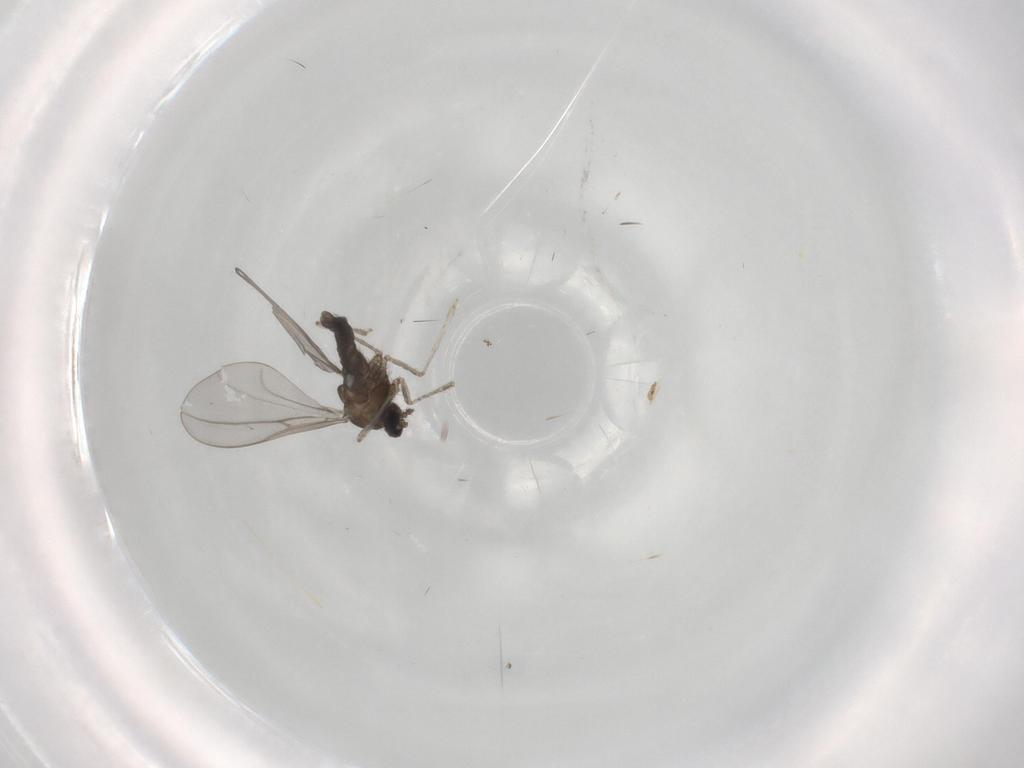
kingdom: Animalia
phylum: Arthropoda
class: Insecta
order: Diptera
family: Cecidomyiidae
